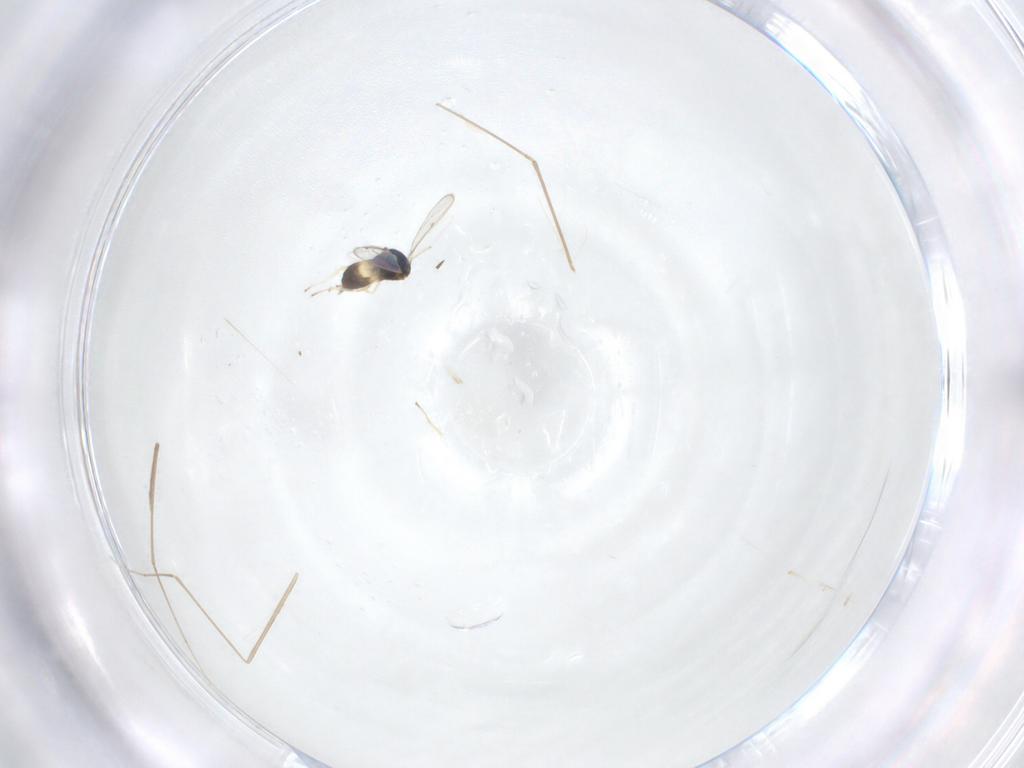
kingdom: Animalia
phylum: Arthropoda
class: Insecta
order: Hymenoptera
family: Eulophidae
